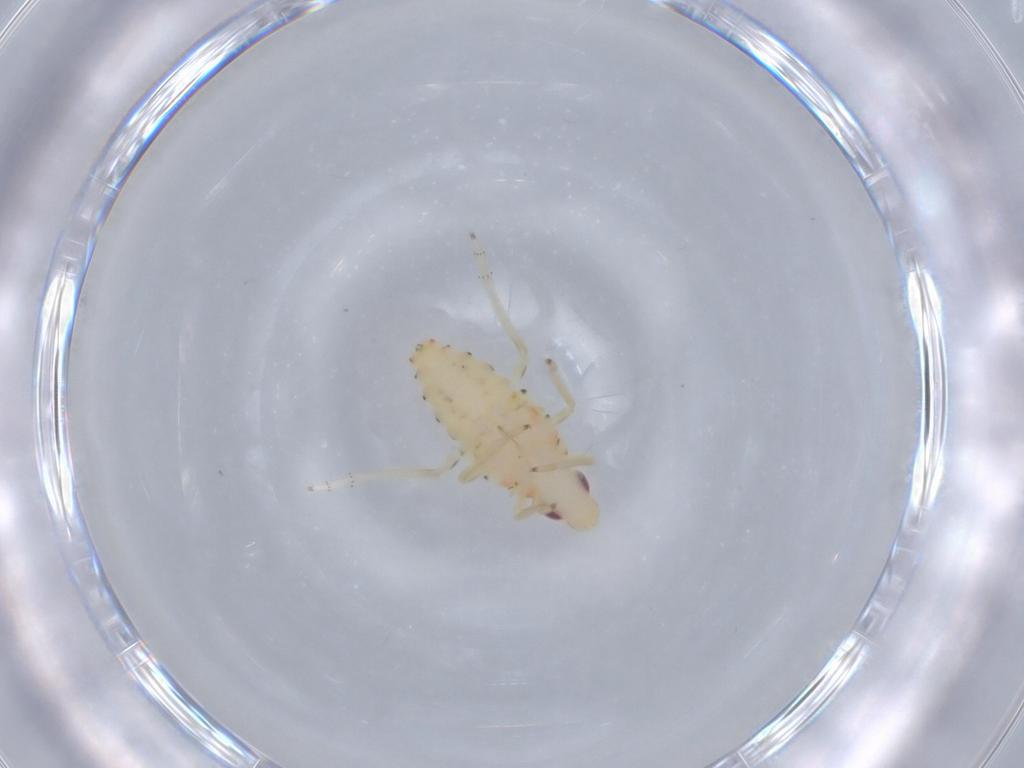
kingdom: Animalia
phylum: Arthropoda
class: Insecta
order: Hemiptera
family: Tropiduchidae
